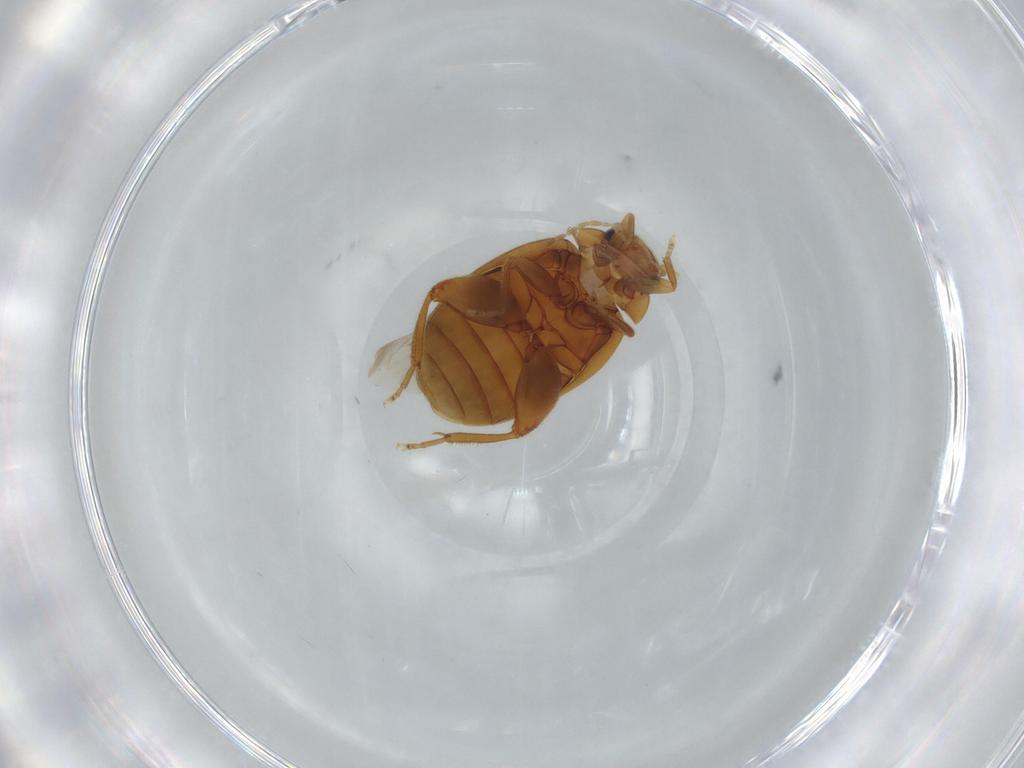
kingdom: Animalia
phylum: Arthropoda
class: Insecta
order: Coleoptera
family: Scirtidae
